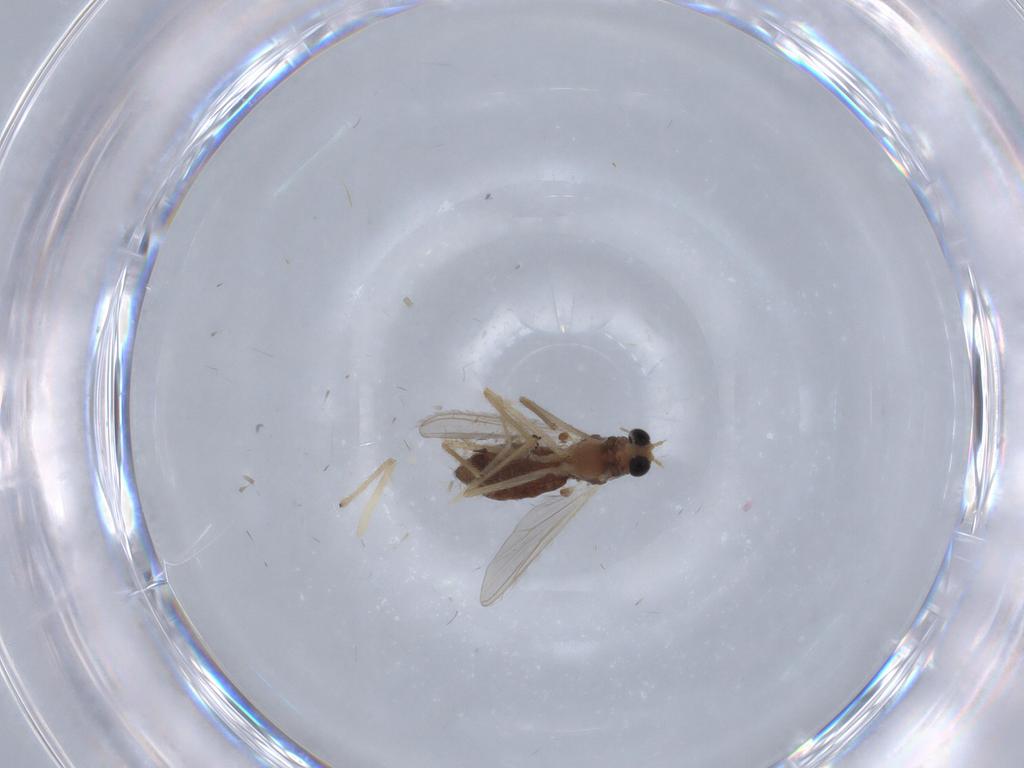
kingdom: Animalia
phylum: Arthropoda
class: Insecta
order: Diptera
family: Chironomidae
